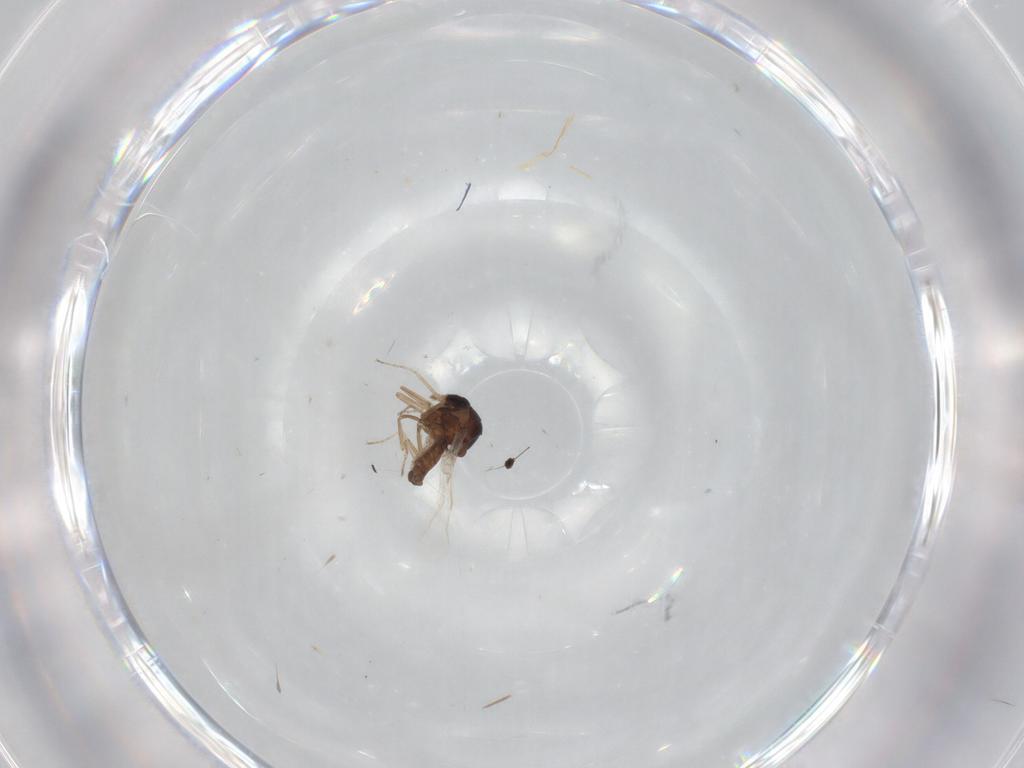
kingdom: Animalia
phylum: Arthropoda
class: Insecta
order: Diptera
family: Ceratopogonidae
